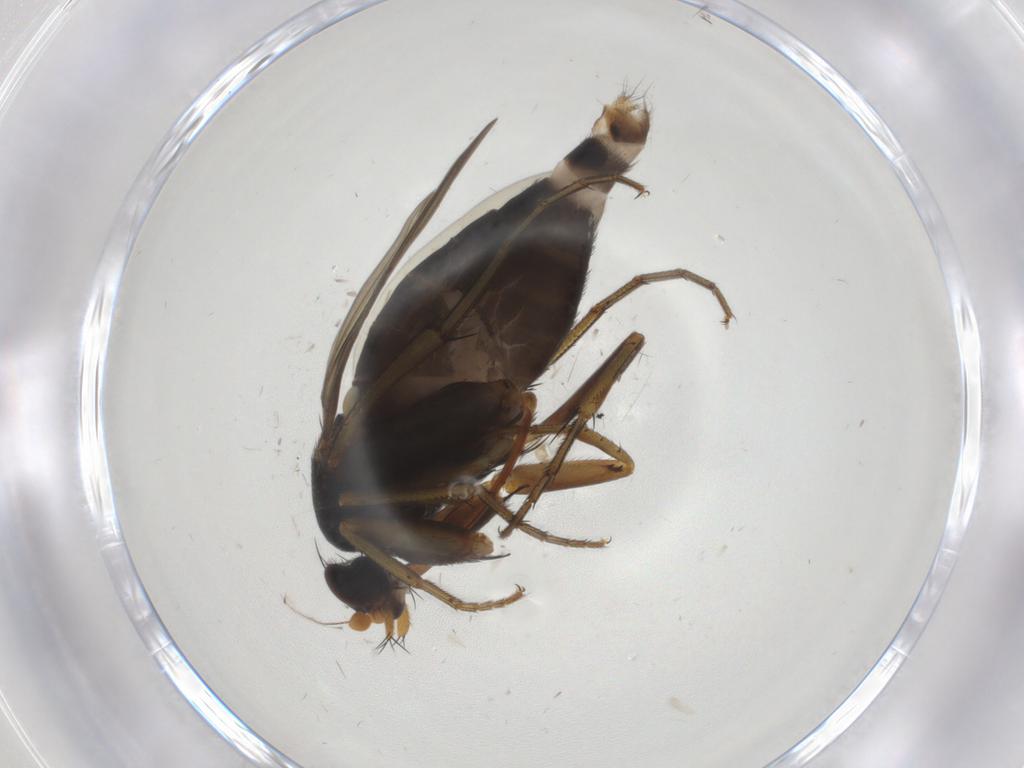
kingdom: Animalia
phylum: Arthropoda
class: Insecta
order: Diptera
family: Phoridae
